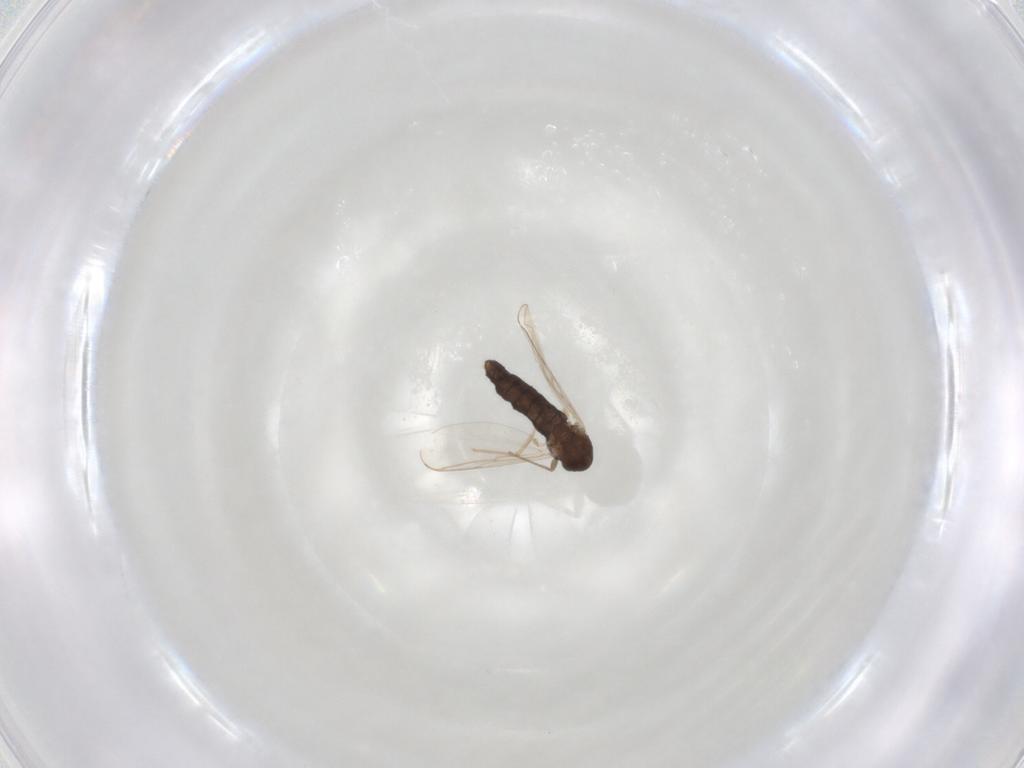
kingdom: Animalia
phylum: Arthropoda
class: Insecta
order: Diptera
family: Chironomidae
